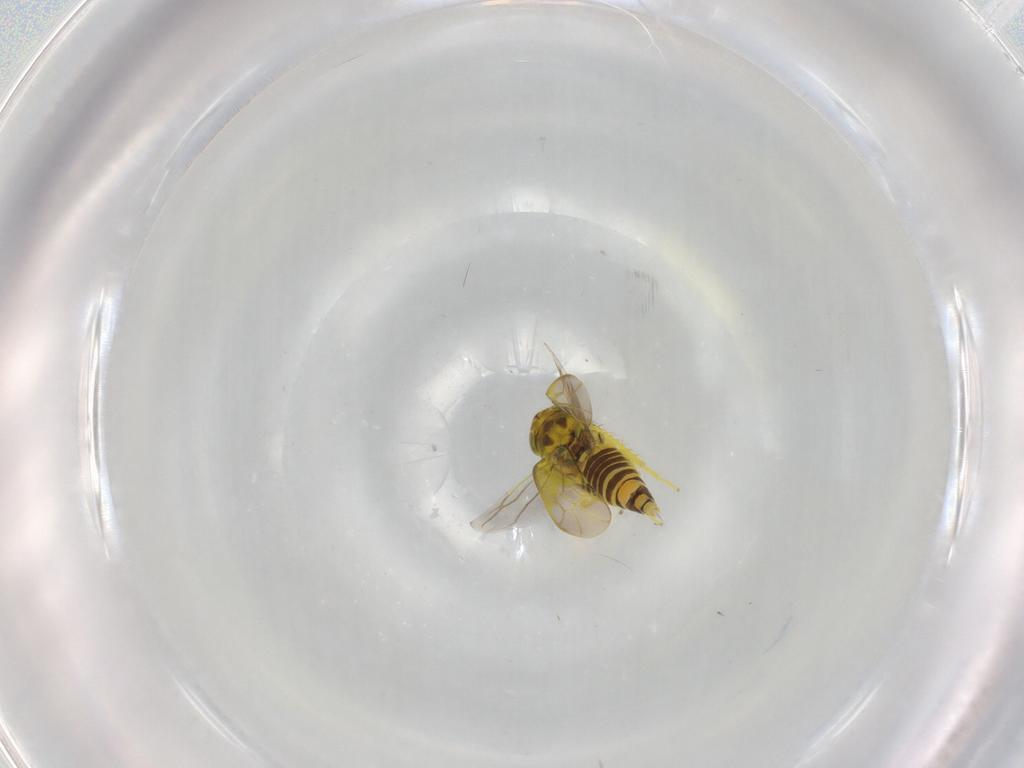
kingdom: Animalia
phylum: Arthropoda
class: Insecta
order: Hemiptera
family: Cicadellidae
